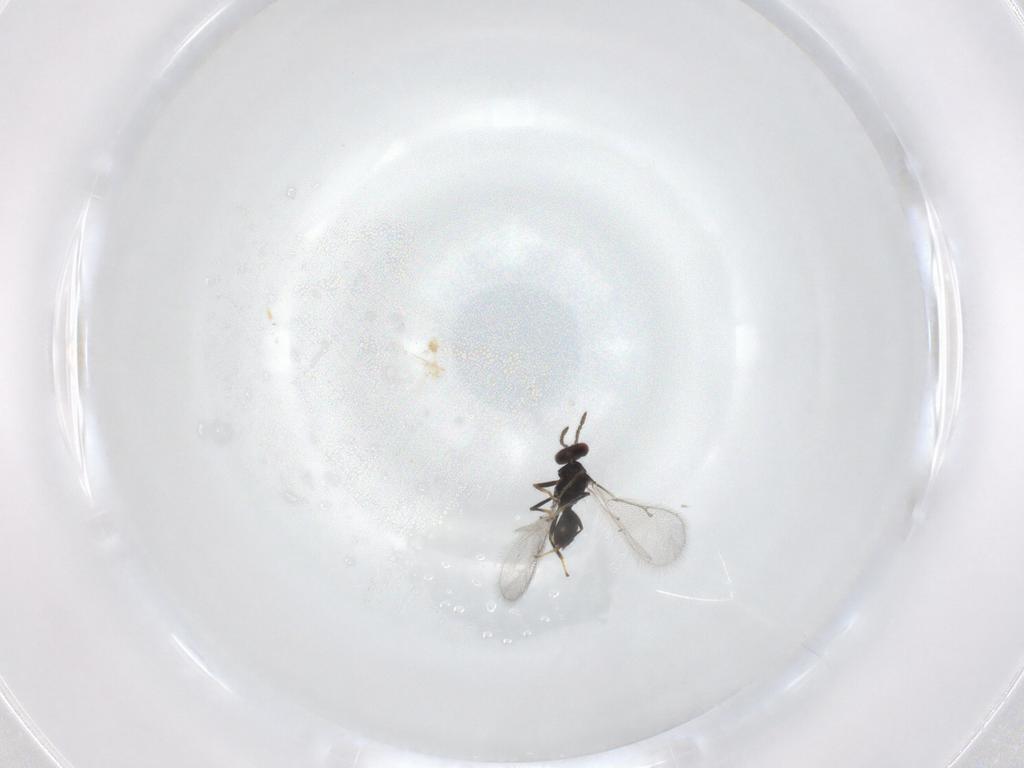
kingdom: Animalia
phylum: Arthropoda
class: Insecta
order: Hymenoptera
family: Eulophidae
